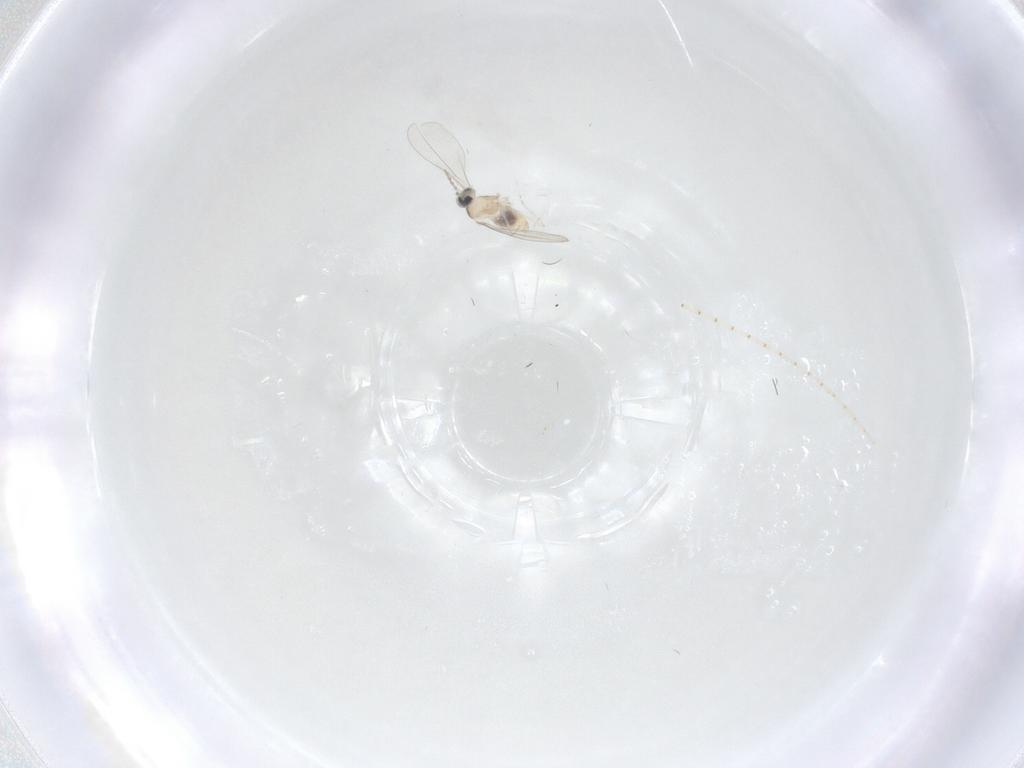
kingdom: Animalia
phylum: Arthropoda
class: Insecta
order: Diptera
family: Cecidomyiidae
